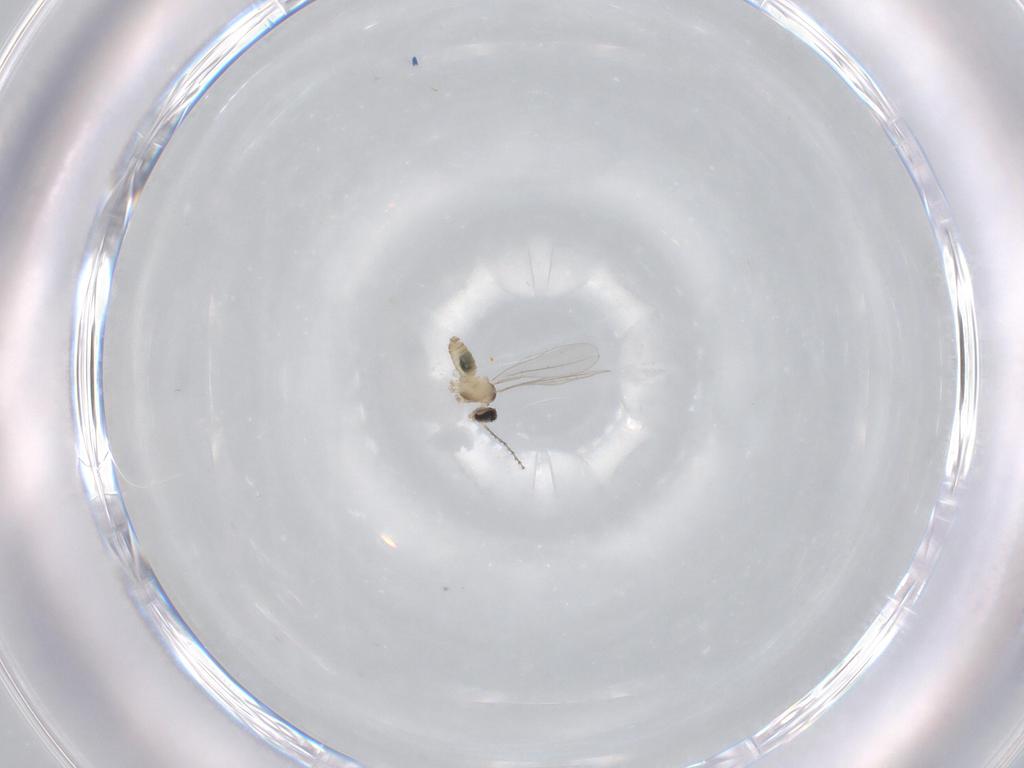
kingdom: Animalia
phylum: Arthropoda
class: Insecta
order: Diptera
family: Cecidomyiidae
